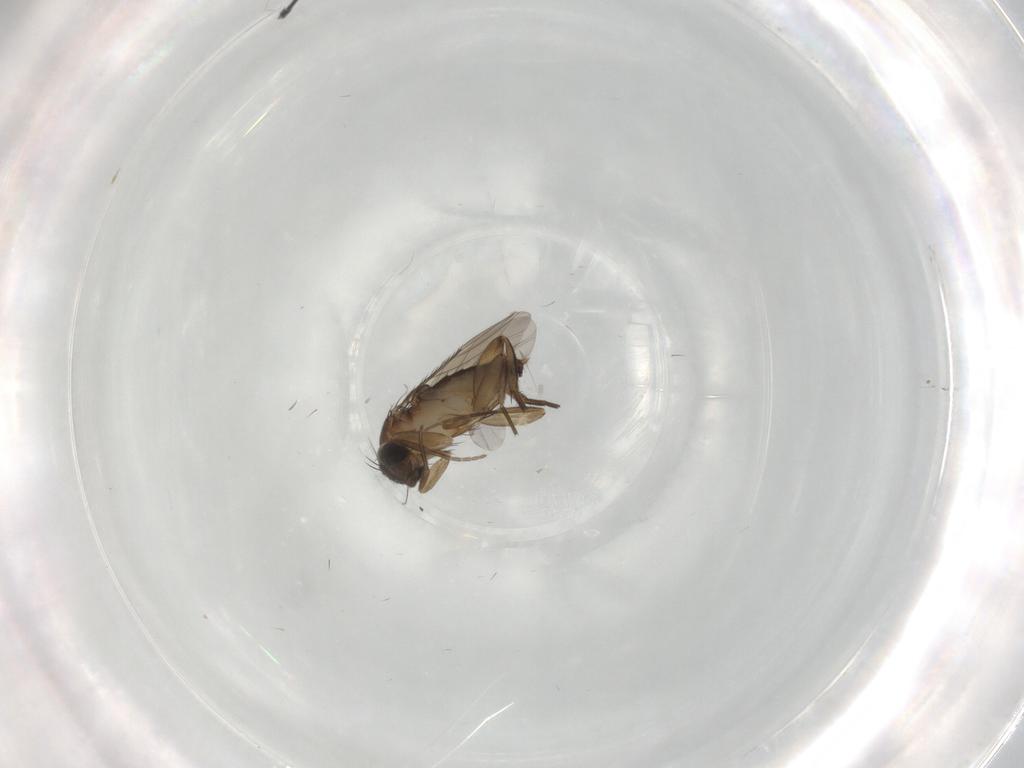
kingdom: Animalia
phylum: Arthropoda
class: Insecta
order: Diptera
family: Phoridae
